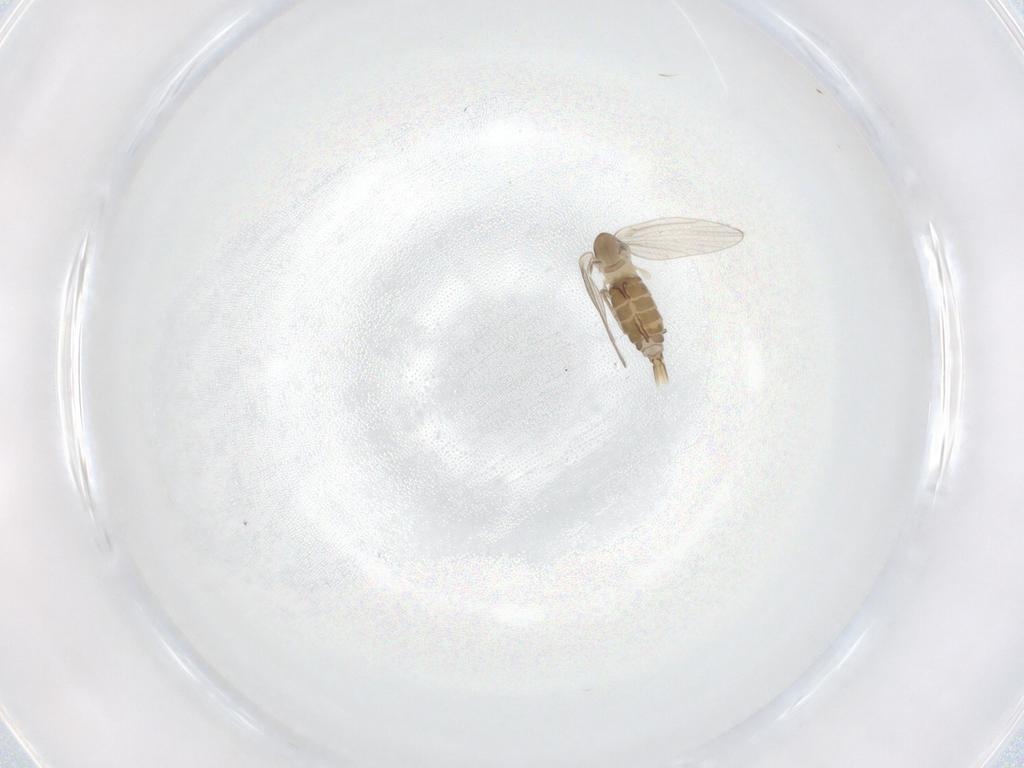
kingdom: Animalia
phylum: Arthropoda
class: Insecta
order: Diptera
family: Psychodidae
